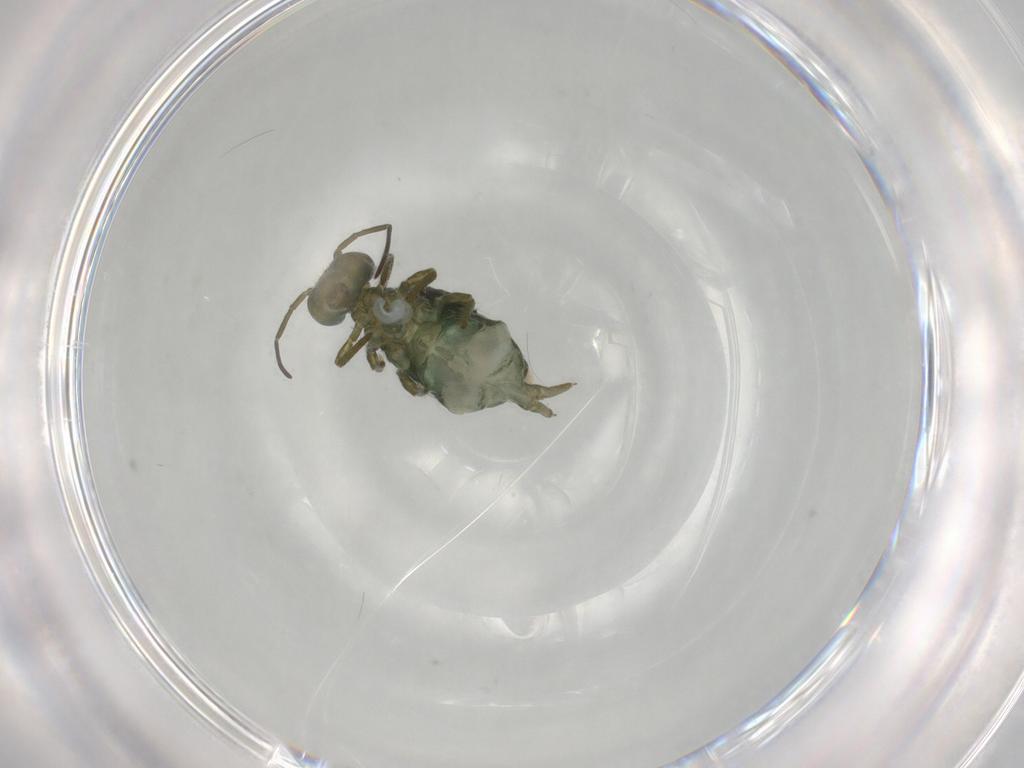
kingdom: Animalia
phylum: Arthropoda
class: Collembola
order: Symphypleona
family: Sminthuridae
